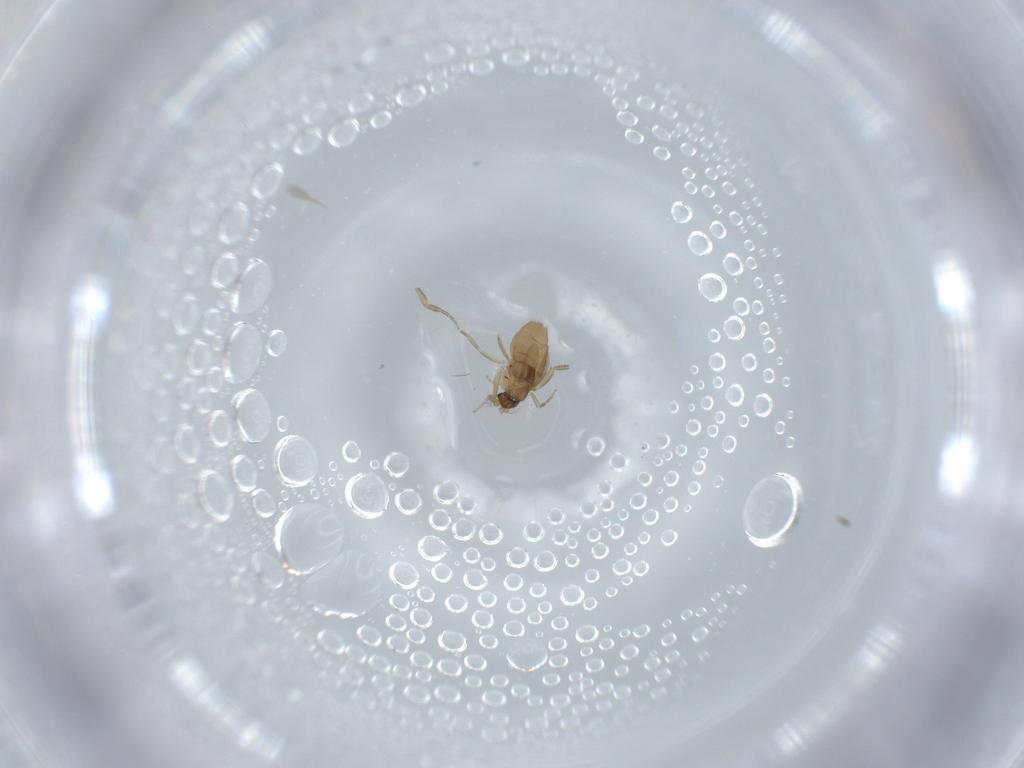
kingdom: Animalia
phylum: Arthropoda
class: Insecta
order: Diptera
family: Phoridae
